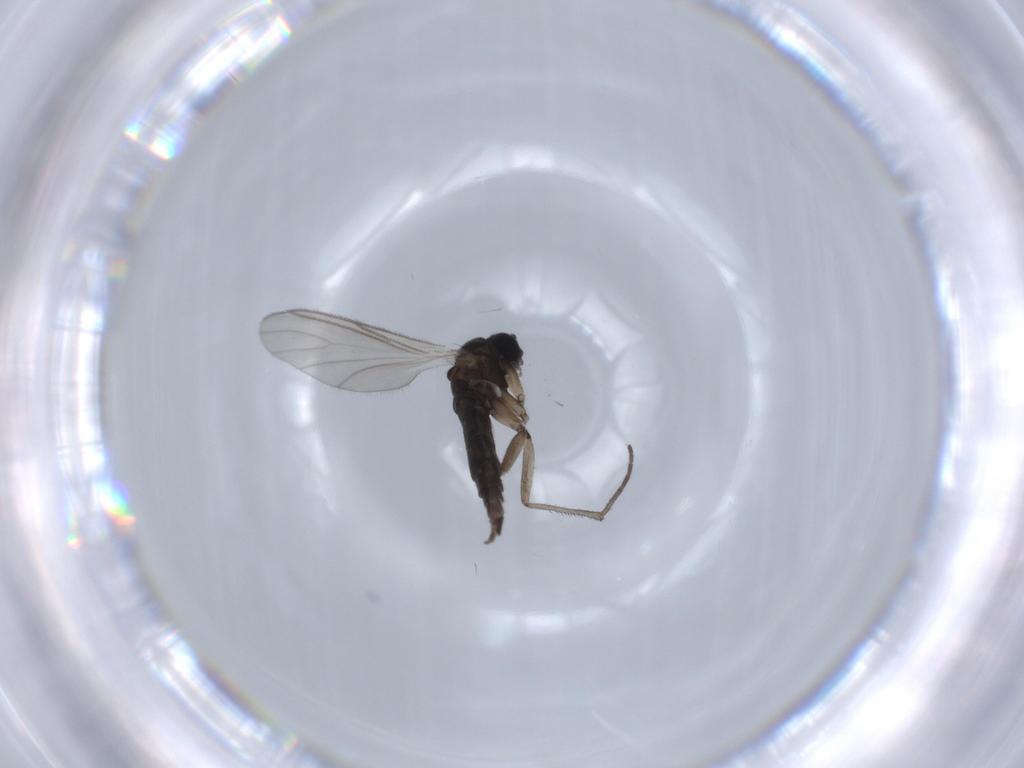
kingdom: Animalia
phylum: Arthropoda
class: Insecta
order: Diptera
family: Sciaridae
